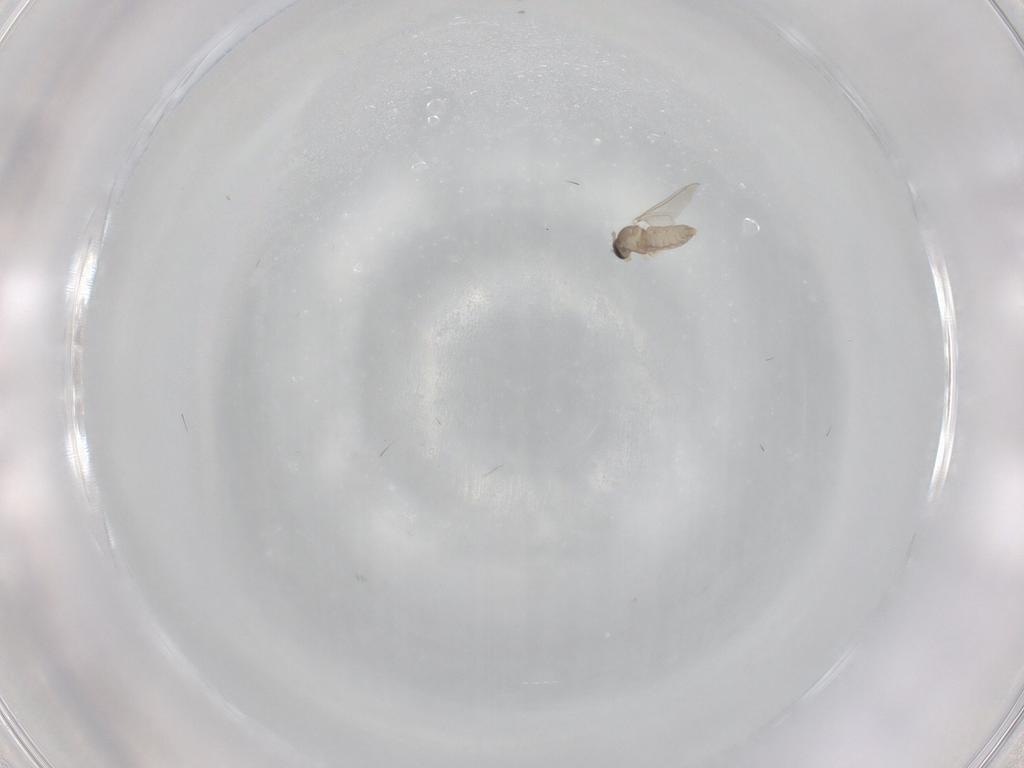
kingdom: Animalia
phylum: Arthropoda
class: Insecta
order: Diptera
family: Cecidomyiidae
